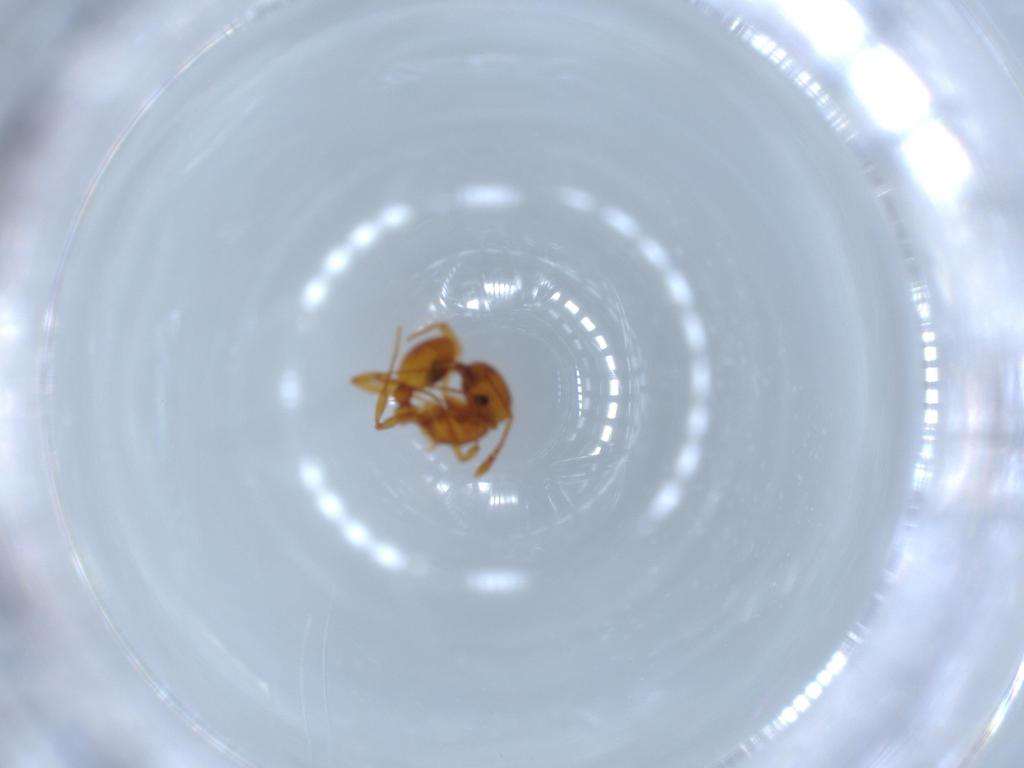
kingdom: Animalia
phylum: Arthropoda
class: Insecta
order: Hymenoptera
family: Formicidae
